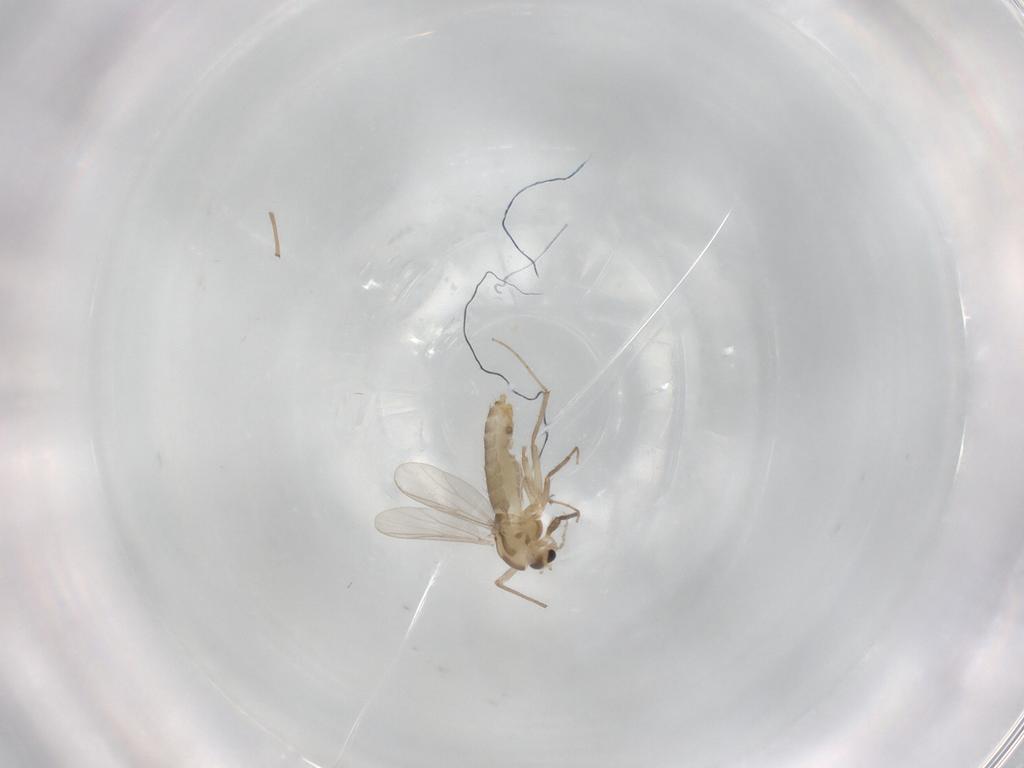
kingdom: Animalia
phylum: Arthropoda
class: Insecta
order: Diptera
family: Chironomidae
